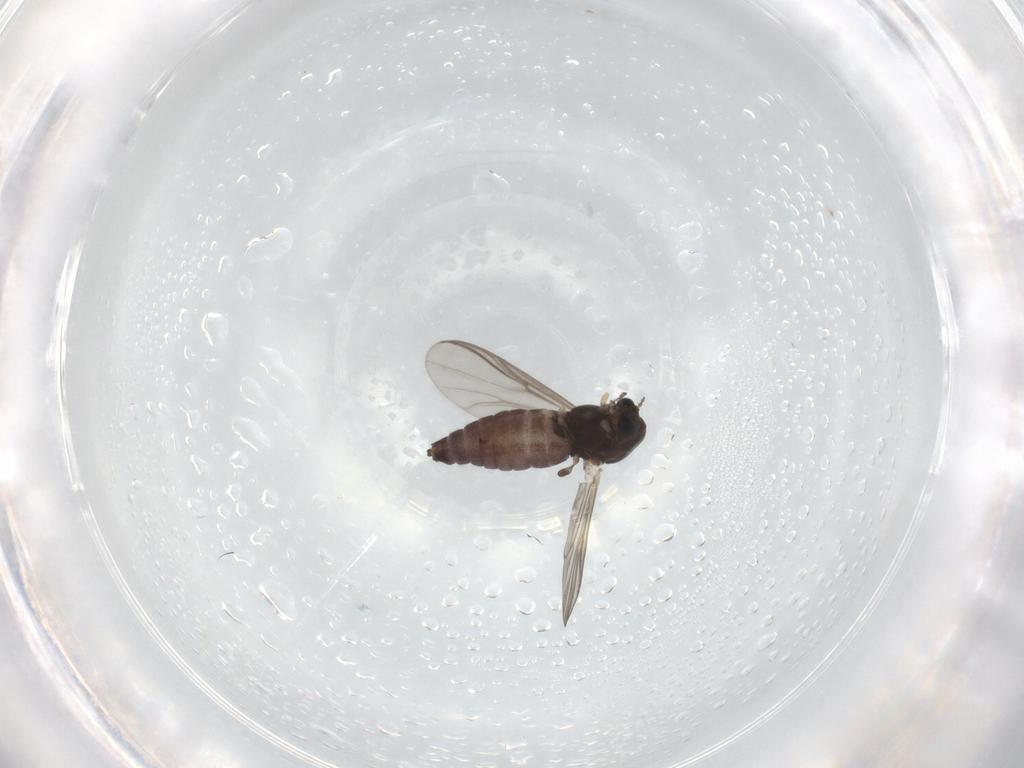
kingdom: Animalia
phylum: Arthropoda
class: Insecta
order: Diptera
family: Chironomidae
